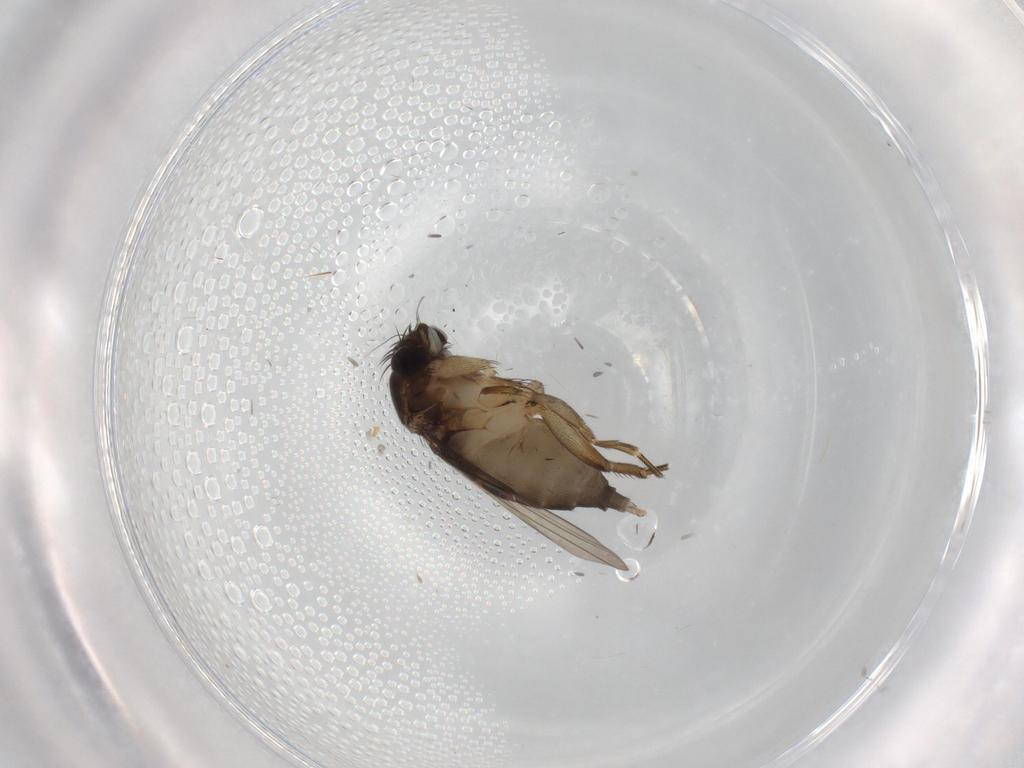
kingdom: Animalia
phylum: Arthropoda
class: Insecta
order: Diptera
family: Phoridae
